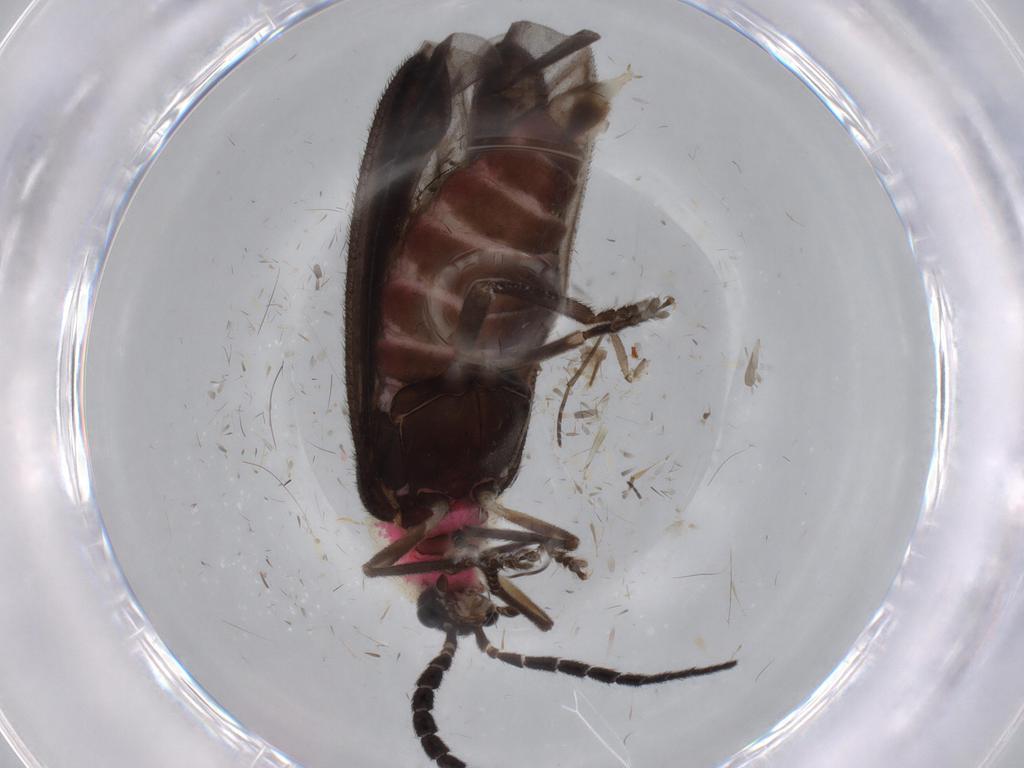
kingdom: Animalia
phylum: Arthropoda
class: Insecta
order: Coleoptera
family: Lampyridae
